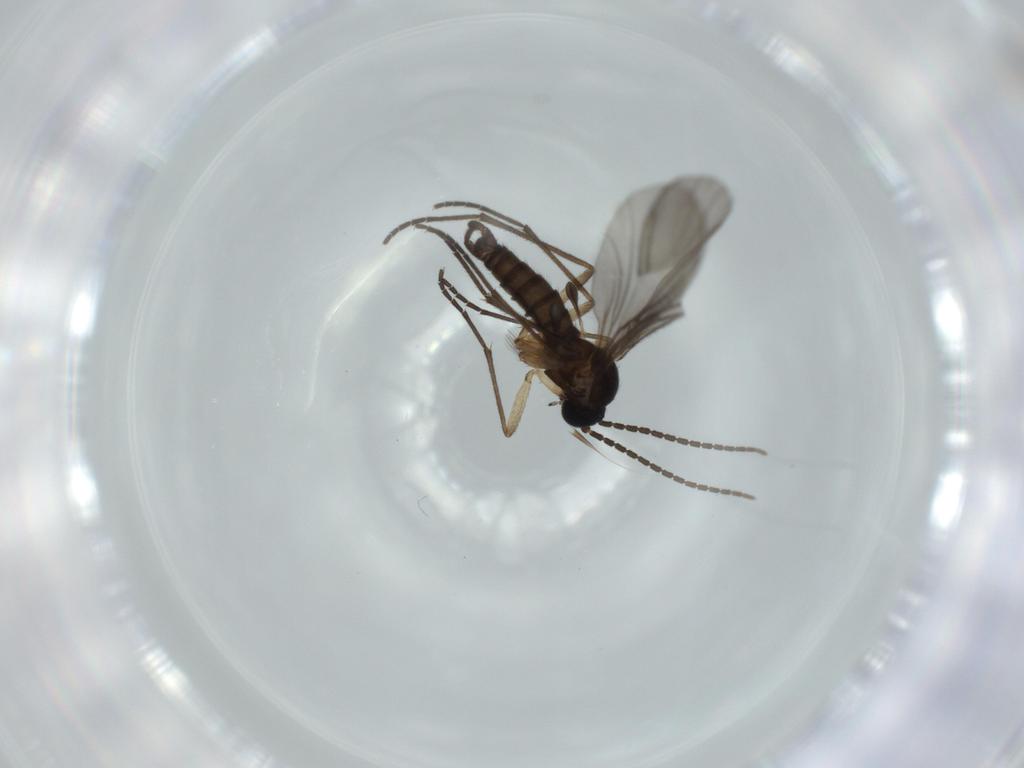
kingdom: Animalia
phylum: Arthropoda
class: Insecta
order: Diptera
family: Sciaridae
